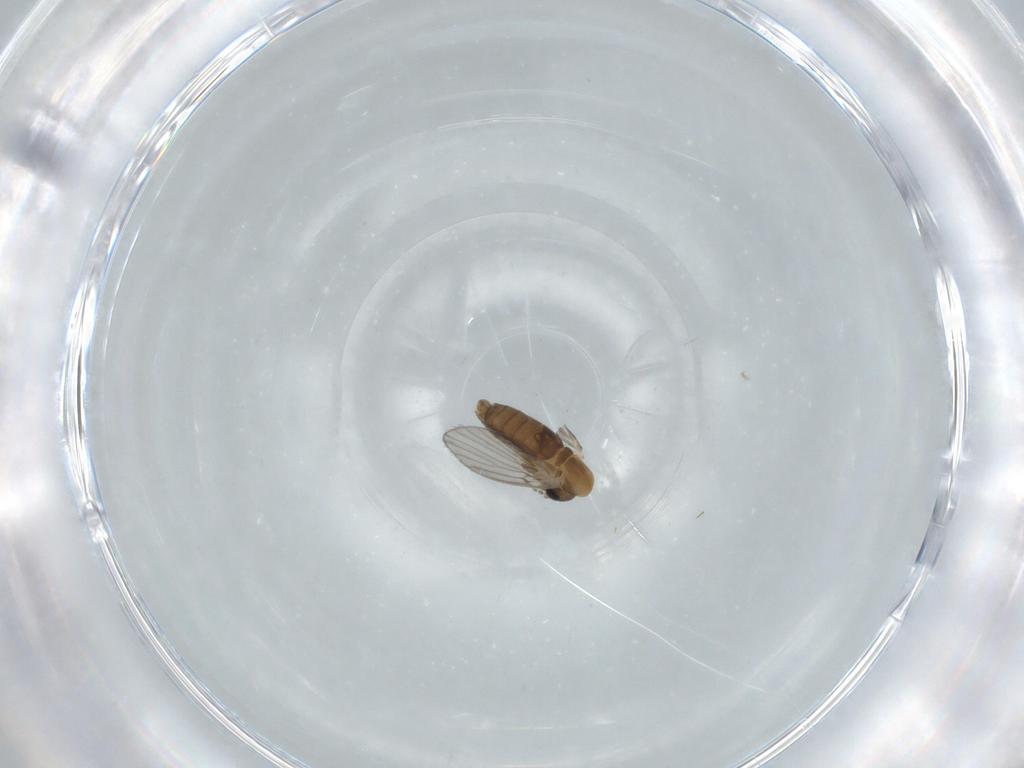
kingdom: Animalia
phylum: Arthropoda
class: Insecta
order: Diptera
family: Psychodidae
